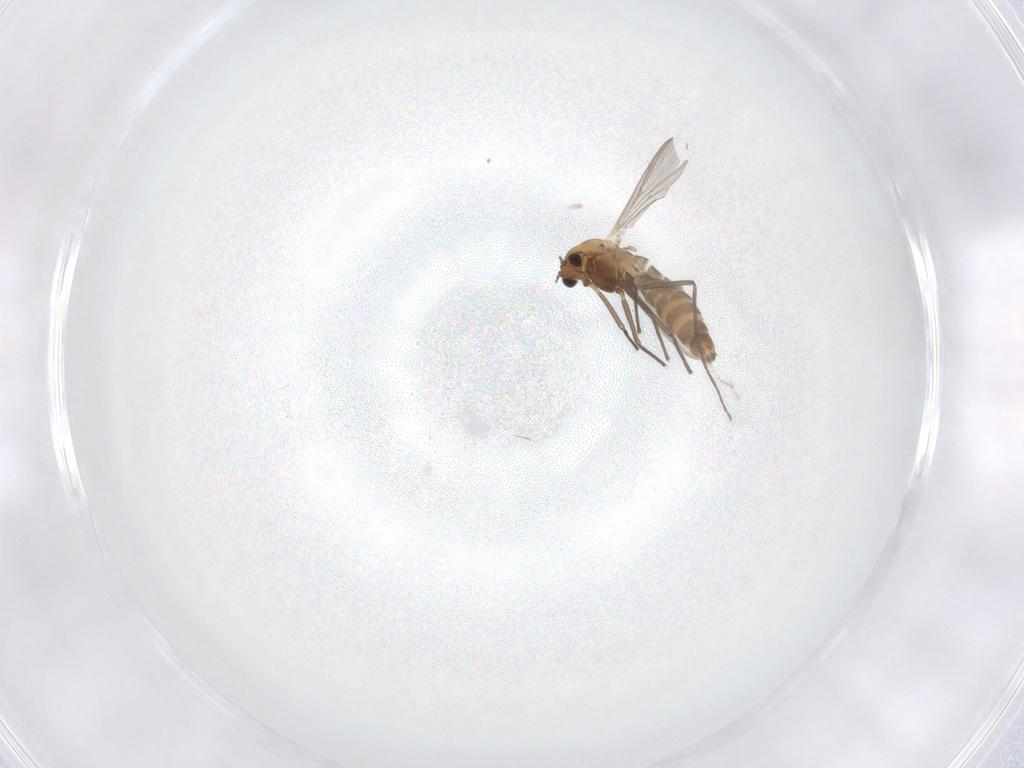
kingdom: Animalia
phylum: Arthropoda
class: Insecta
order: Diptera
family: Chironomidae
